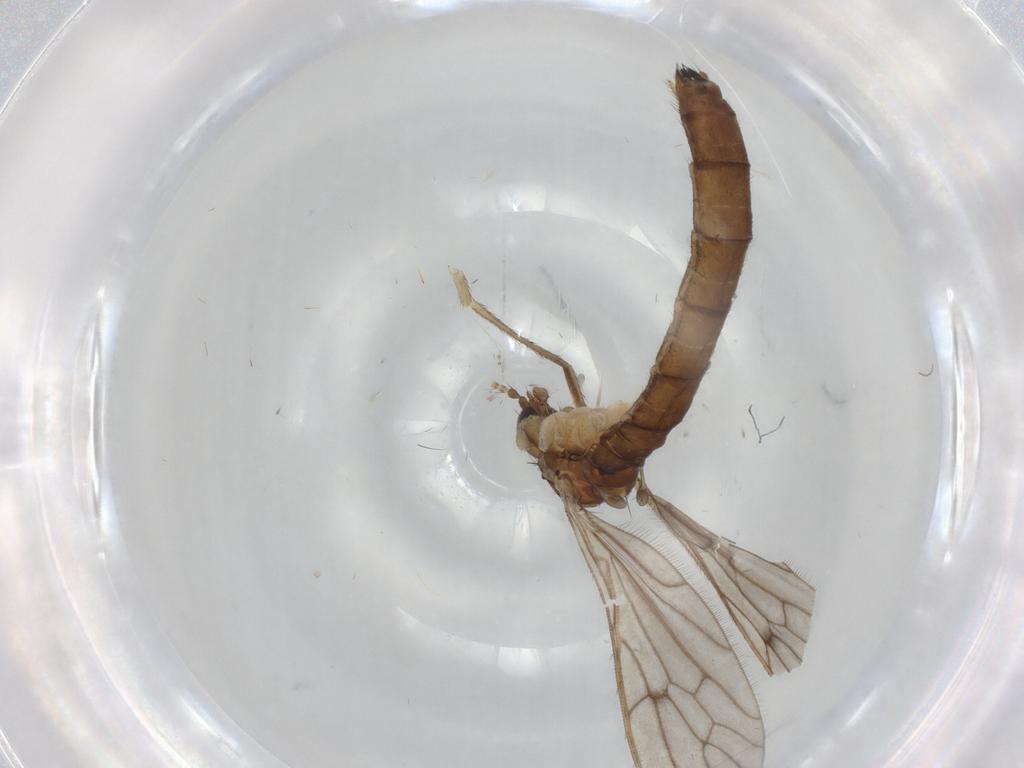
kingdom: Animalia
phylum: Arthropoda
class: Insecta
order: Diptera
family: Limoniidae
